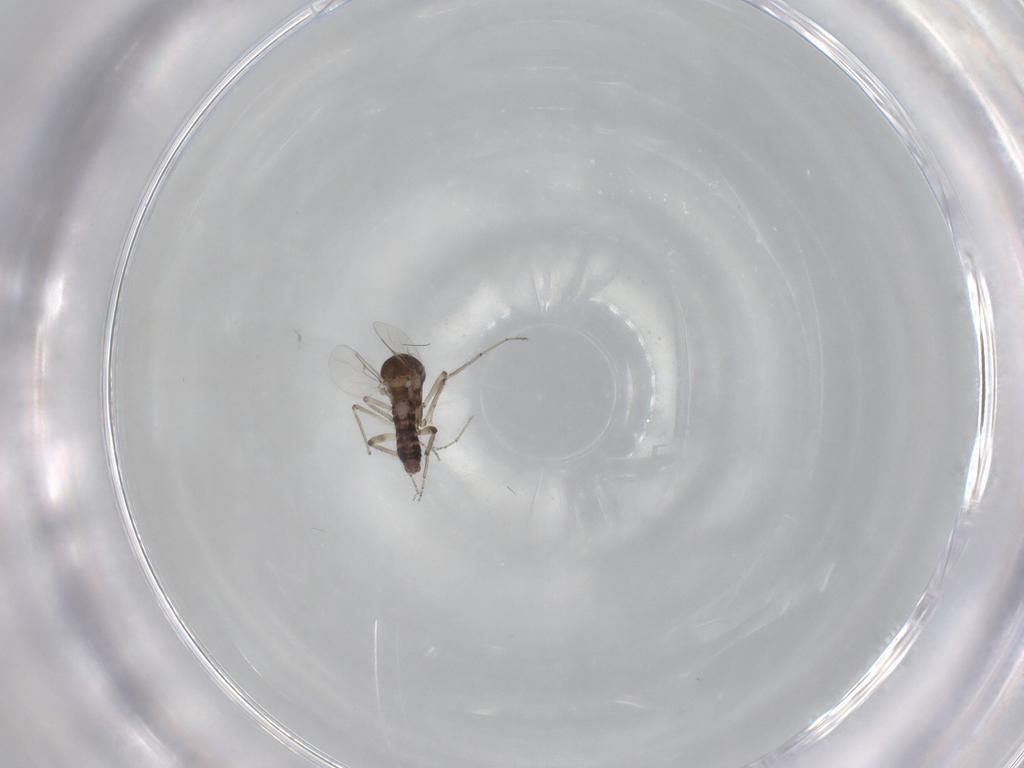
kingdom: Animalia
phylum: Arthropoda
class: Insecta
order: Diptera
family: Ceratopogonidae
